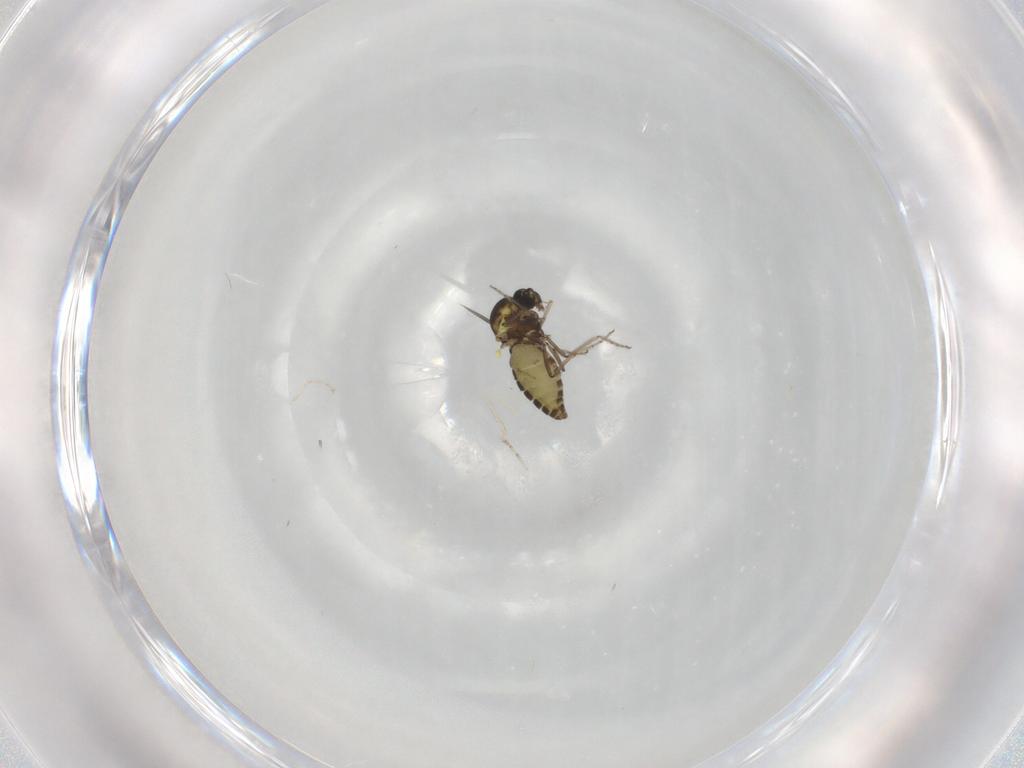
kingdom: Animalia
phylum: Arthropoda
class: Insecta
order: Diptera
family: Ceratopogonidae
